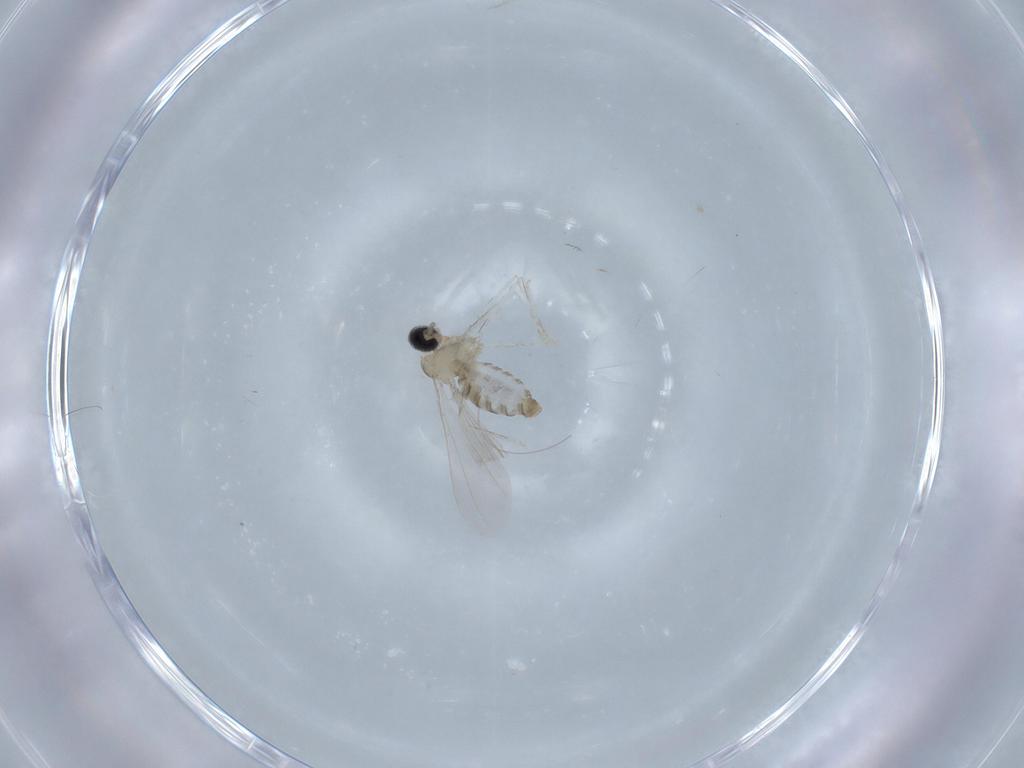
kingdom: Animalia
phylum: Arthropoda
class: Insecta
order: Diptera
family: Cecidomyiidae
